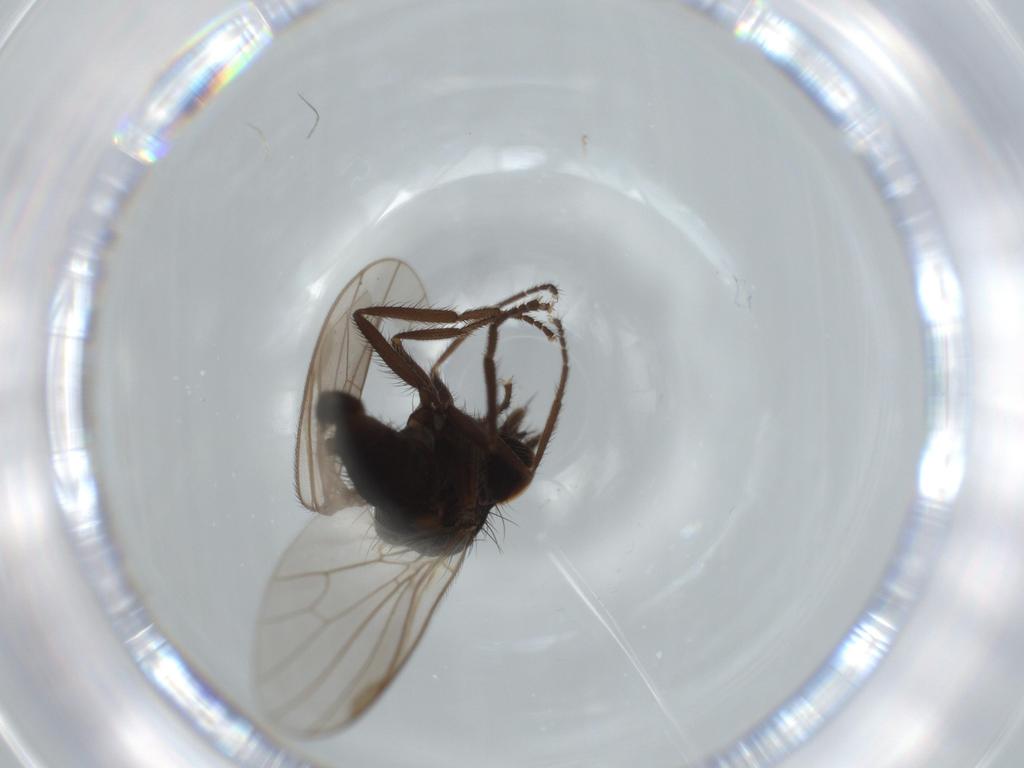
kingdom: Animalia
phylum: Arthropoda
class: Insecta
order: Diptera
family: Dolichopodidae
